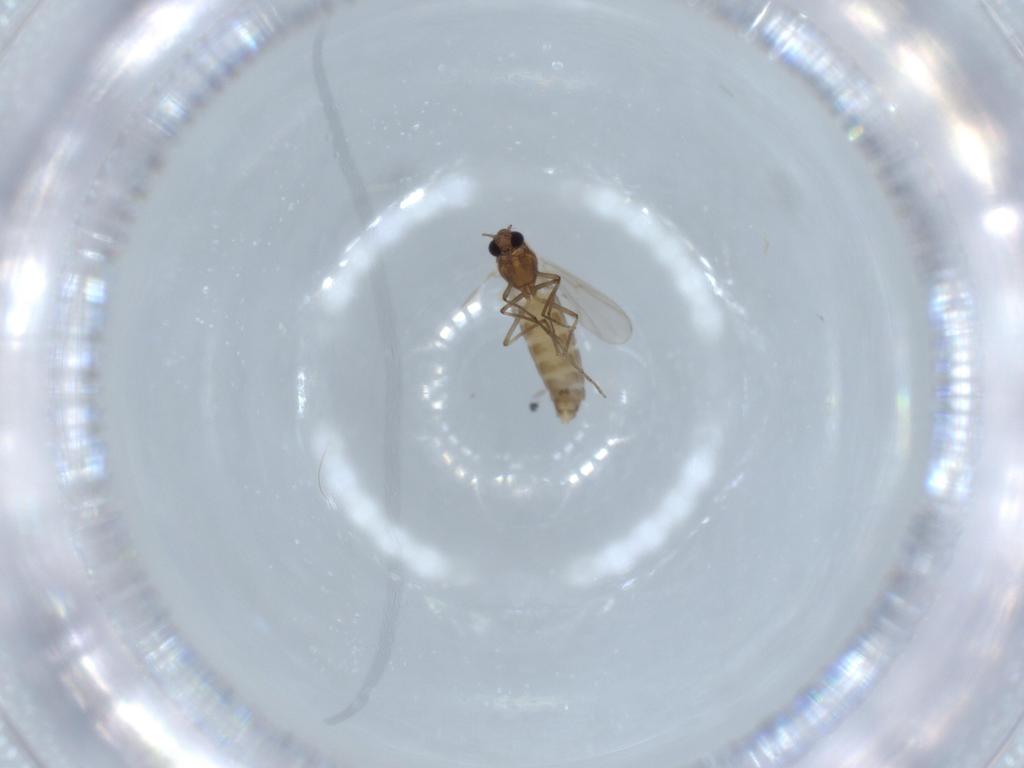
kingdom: Animalia
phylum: Arthropoda
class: Insecta
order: Diptera
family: Chironomidae
